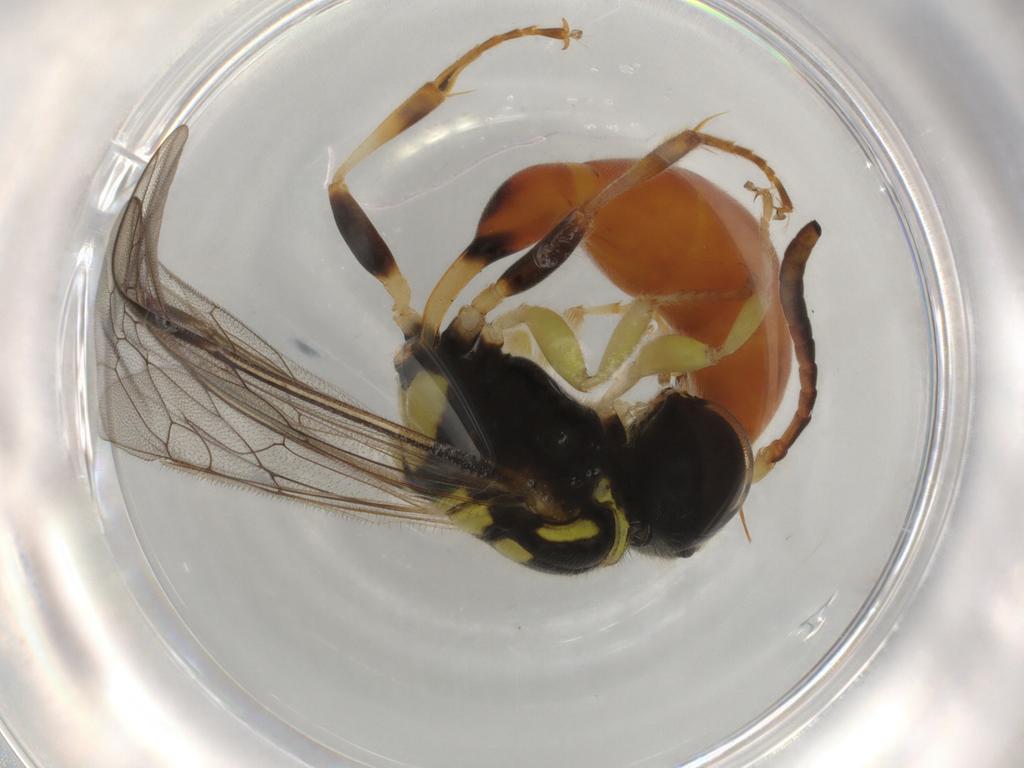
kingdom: Animalia
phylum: Arthropoda
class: Insecta
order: Hymenoptera
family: Crabronidae
